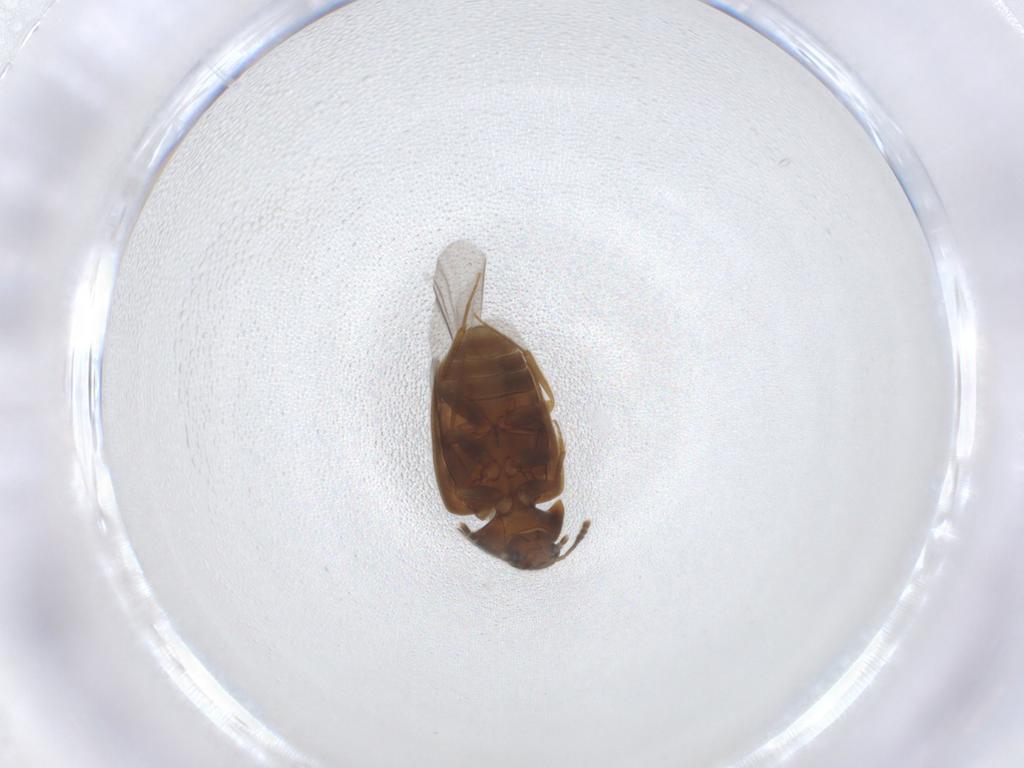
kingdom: Animalia
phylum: Arthropoda
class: Insecta
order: Coleoptera
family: Mycetophagidae
